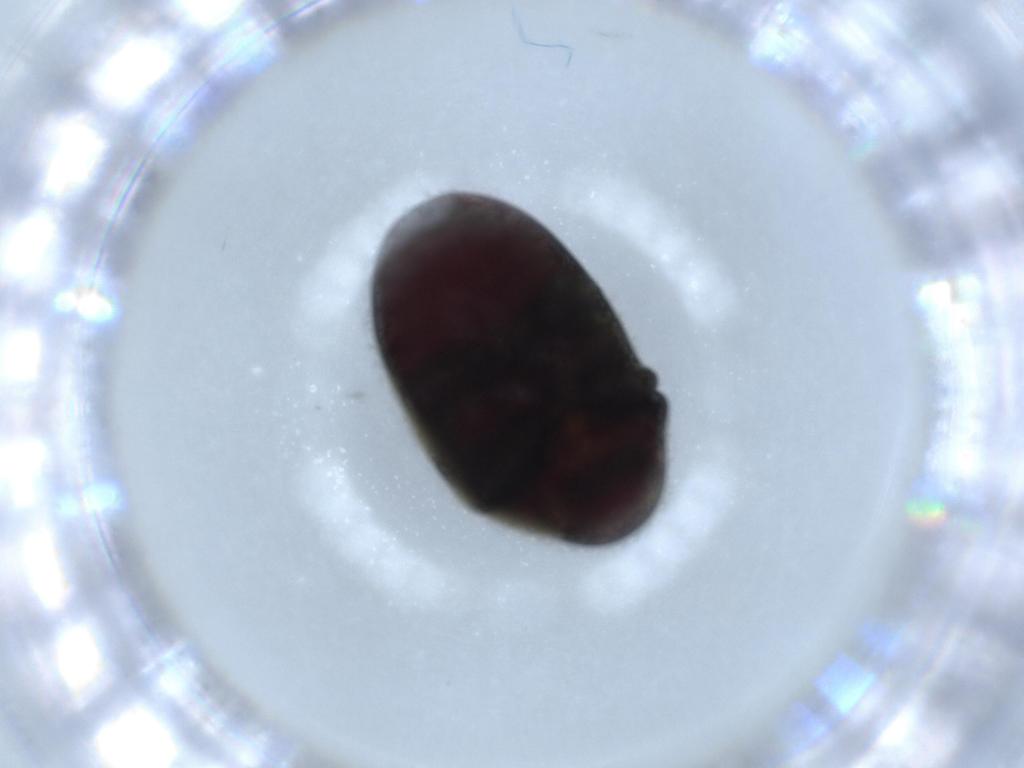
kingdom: Animalia
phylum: Arthropoda
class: Insecta
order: Coleoptera
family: Ptinidae
